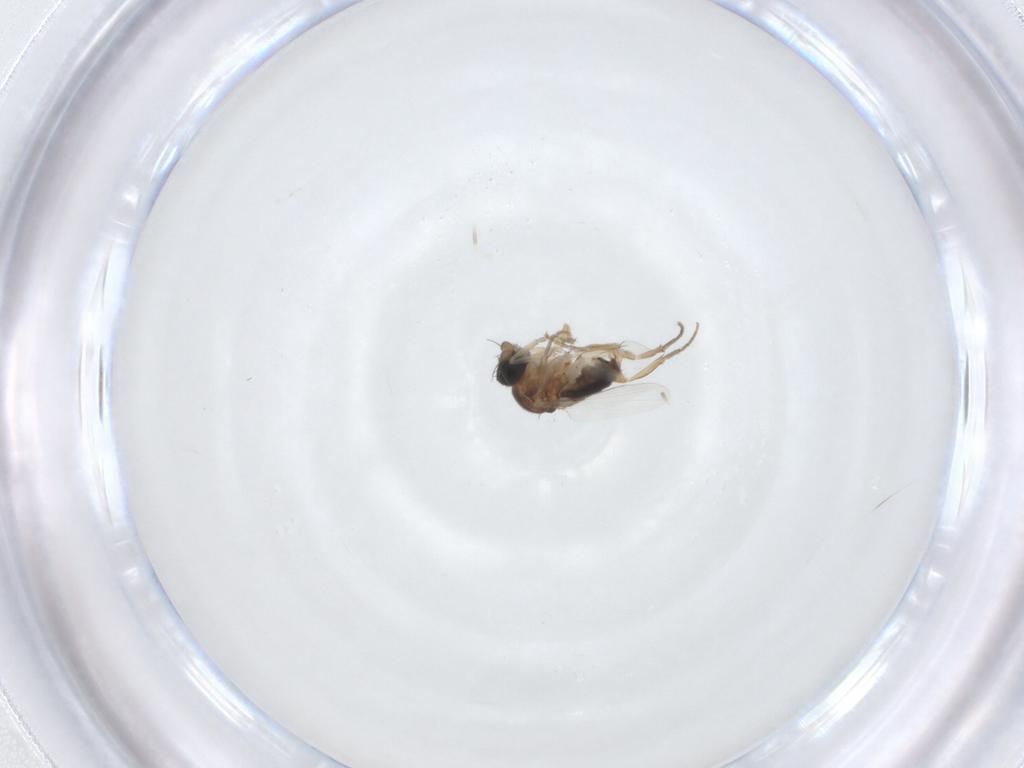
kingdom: Animalia
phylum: Arthropoda
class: Insecta
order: Diptera
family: Phoridae
